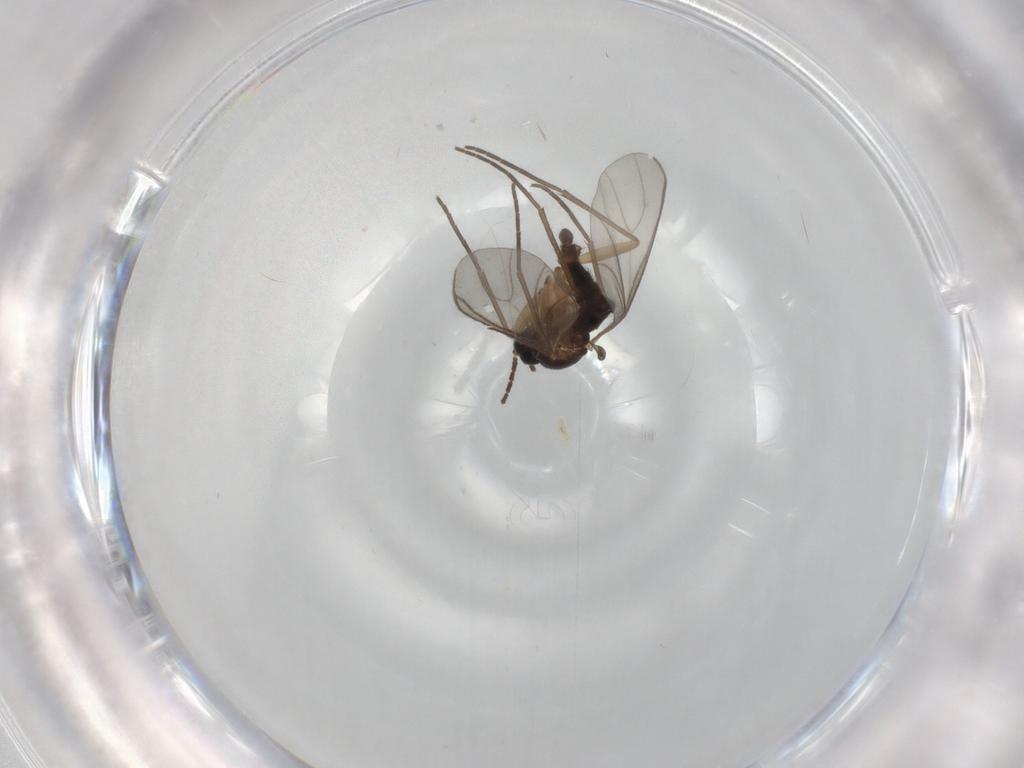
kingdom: Animalia
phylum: Arthropoda
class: Insecta
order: Diptera
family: Sciaridae
